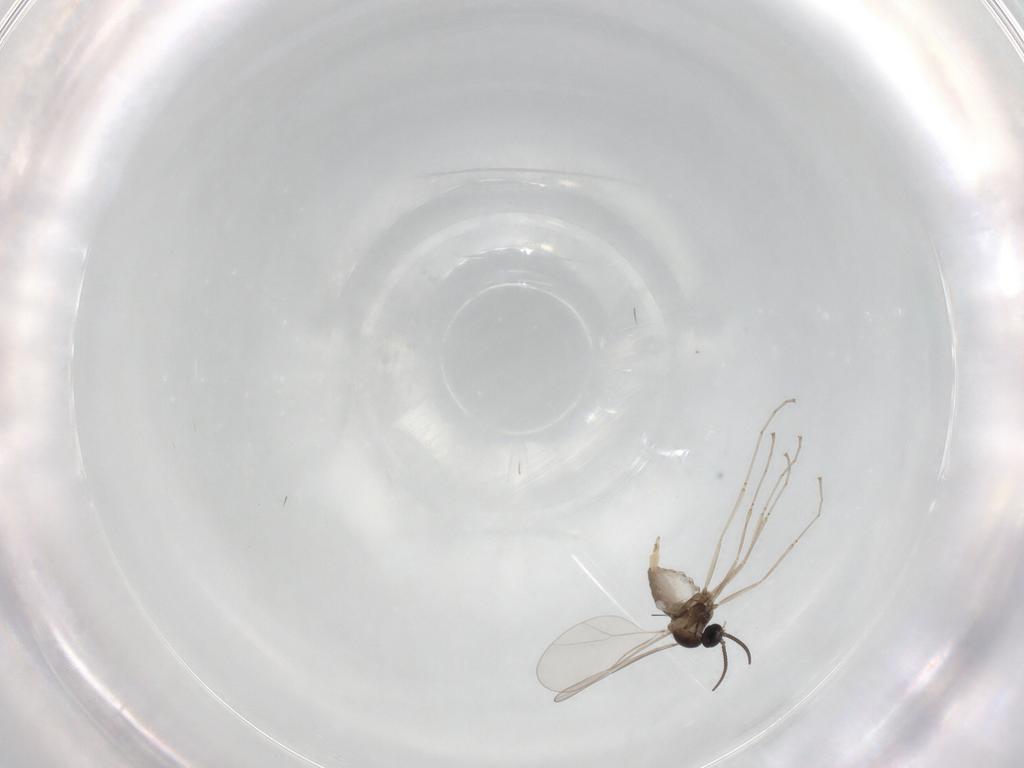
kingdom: Animalia
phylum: Arthropoda
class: Insecta
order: Diptera
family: Cecidomyiidae
